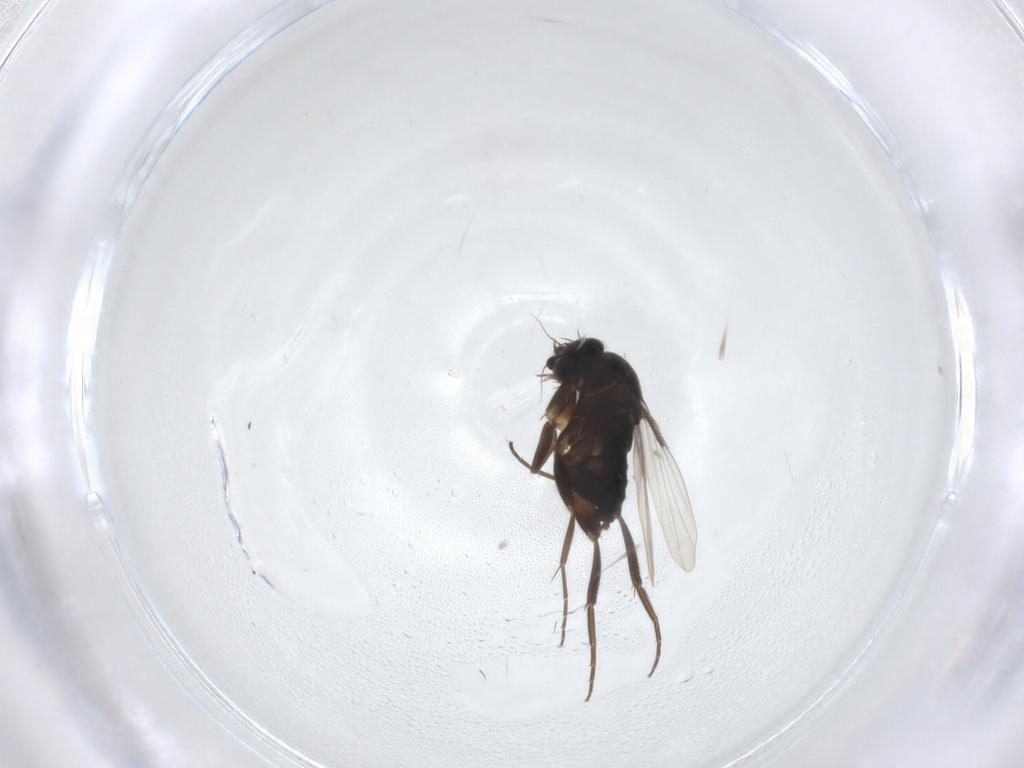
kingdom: Animalia
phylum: Arthropoda
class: Insecta
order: Diptera
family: Phoridae
